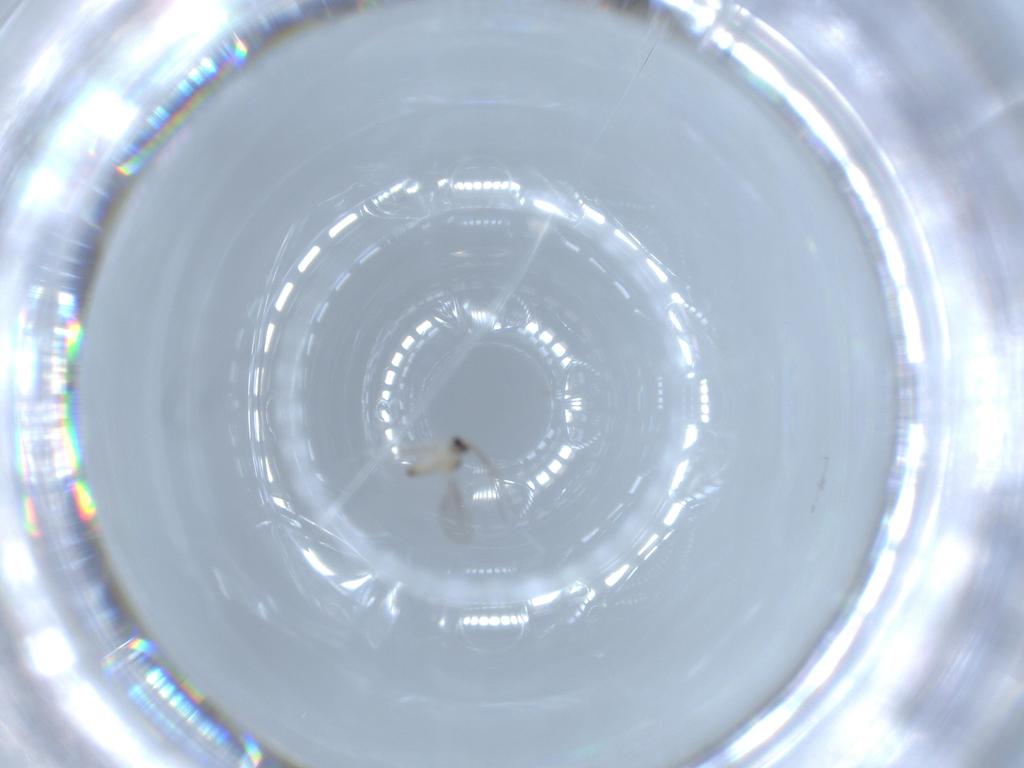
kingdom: Animalia
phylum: Arthropoda
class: Insecta
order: Diptera
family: Cecidomyiidae
